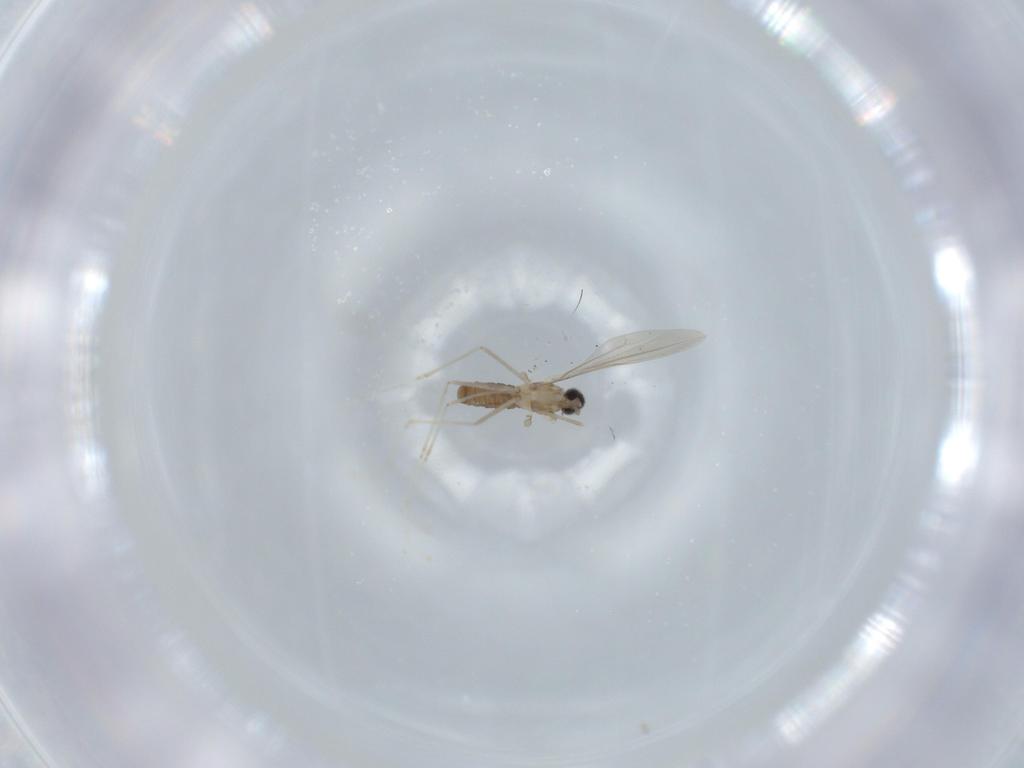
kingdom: Animalia
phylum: Arthropoda
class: Insecta
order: Diptera
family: Cecidomyiidae
